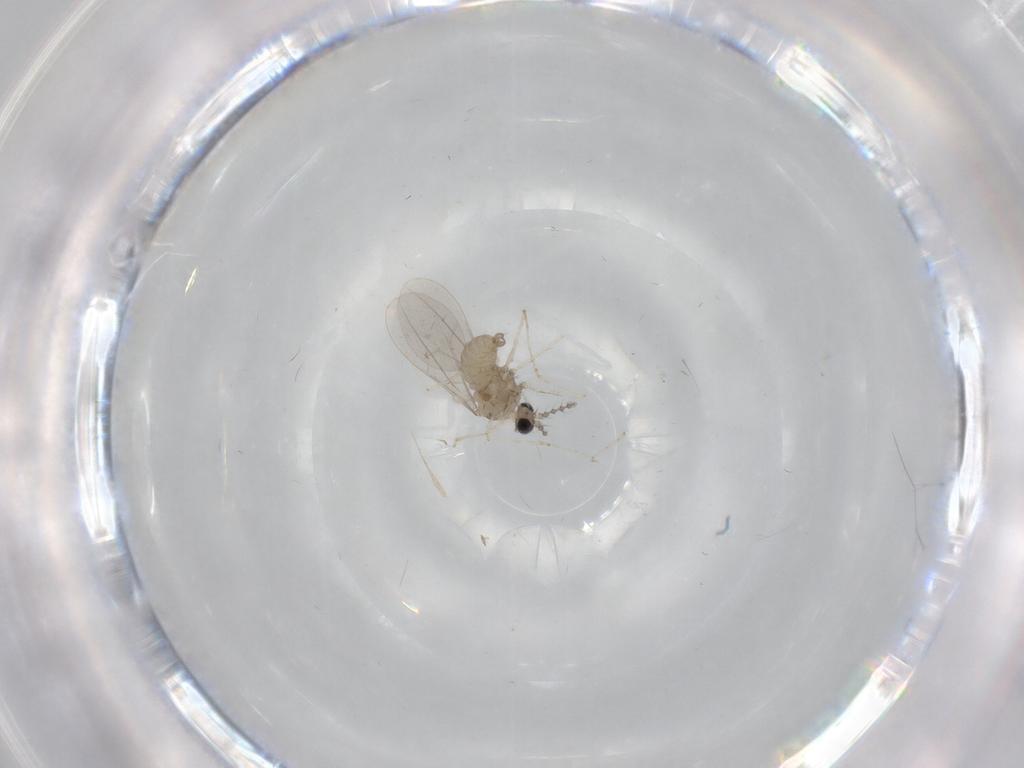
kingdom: Animalia
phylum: Arthropoda
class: Insecta
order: Diptera
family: Cecidomyiidae
